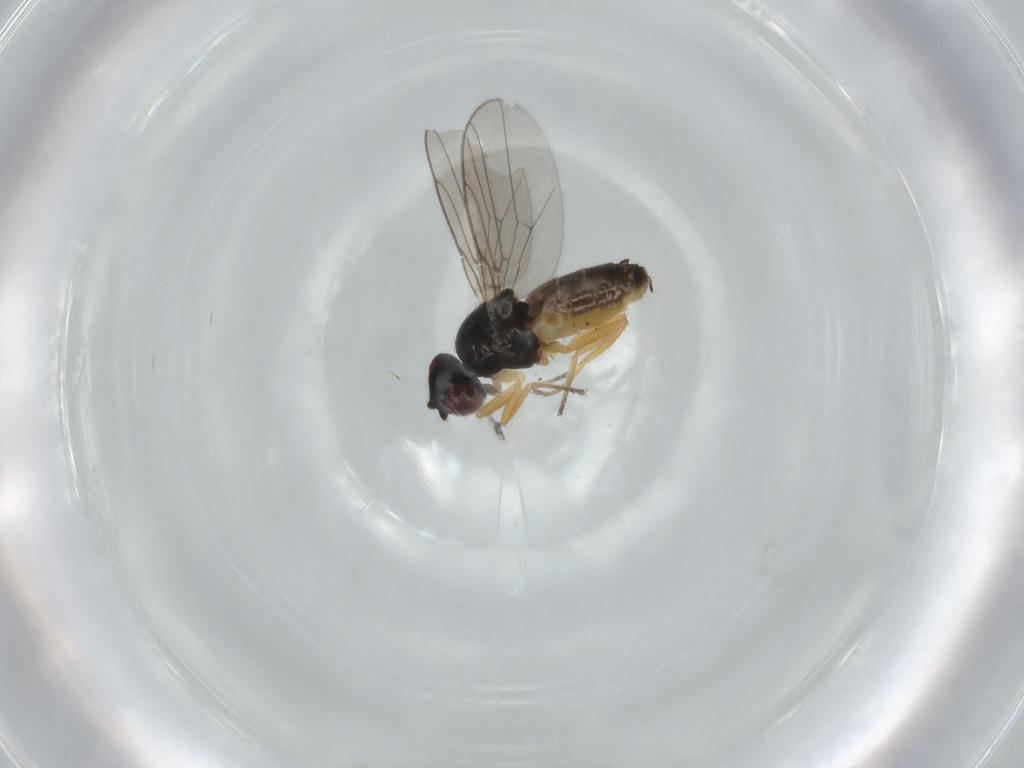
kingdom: Animalia
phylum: Arthropoda
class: Insecta
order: Diptera
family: Chloropidae
